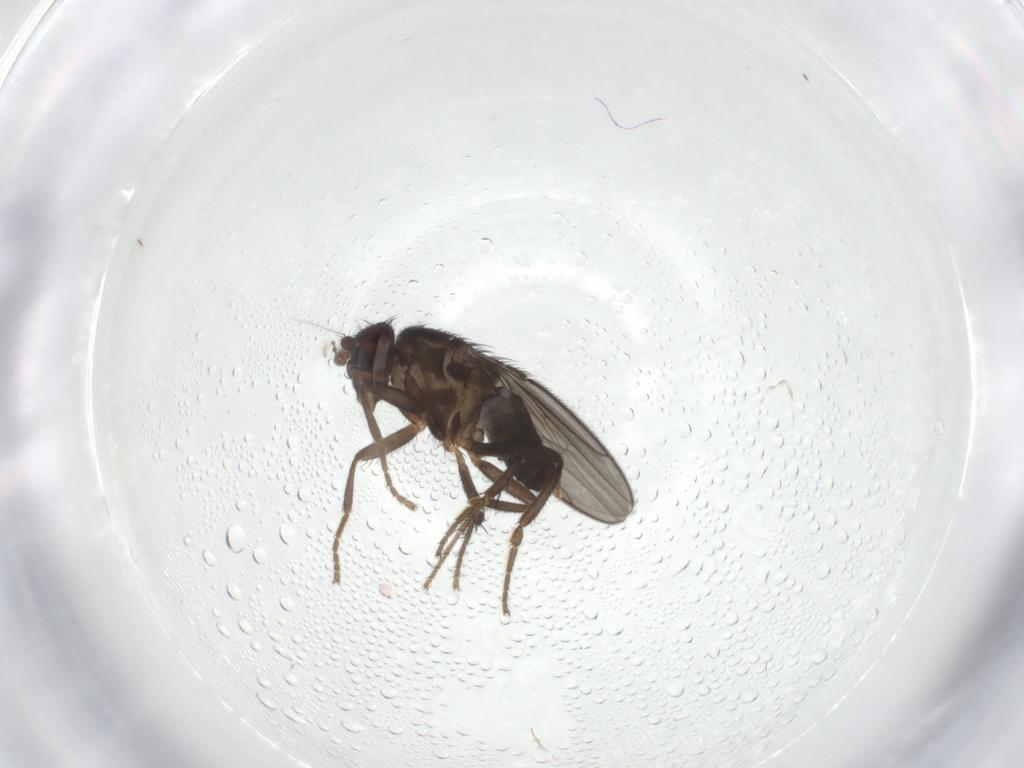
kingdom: Animalia
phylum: Arthropoda
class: Insecta
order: Diptera
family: Sphaeroceridae
